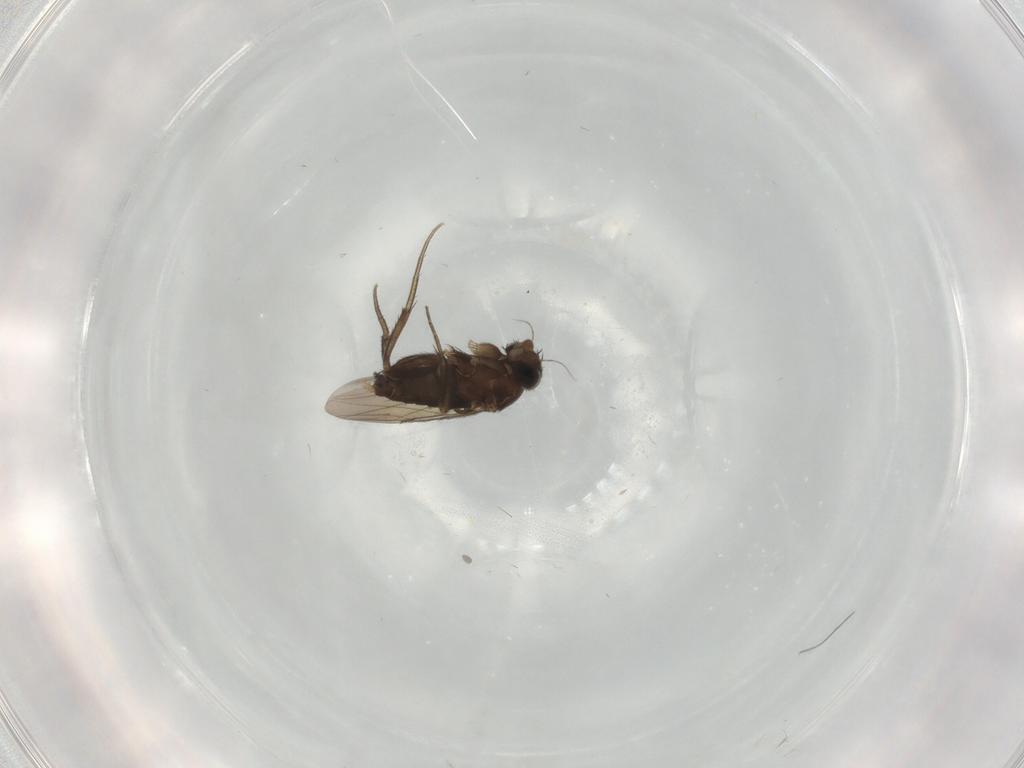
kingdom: Animalia
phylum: Arthropoda
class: Insecta
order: Diptera
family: Phoridae
